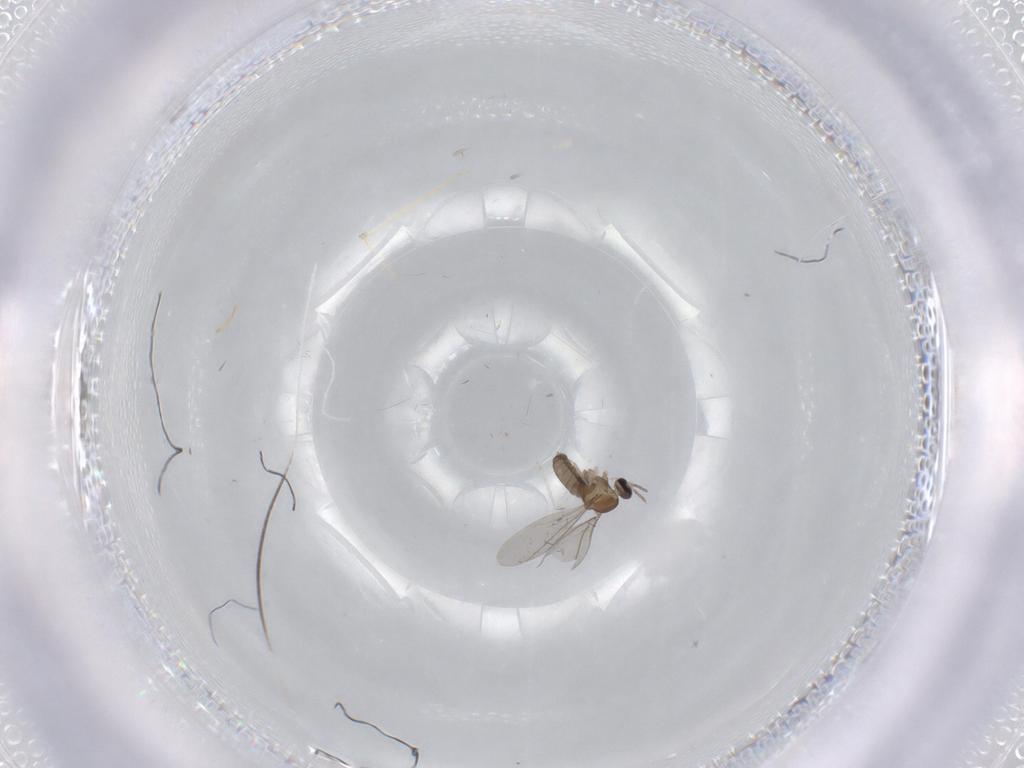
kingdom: Animalia
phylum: Arthropoda
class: Insecta
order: Diptera
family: Cecidomyiidae
